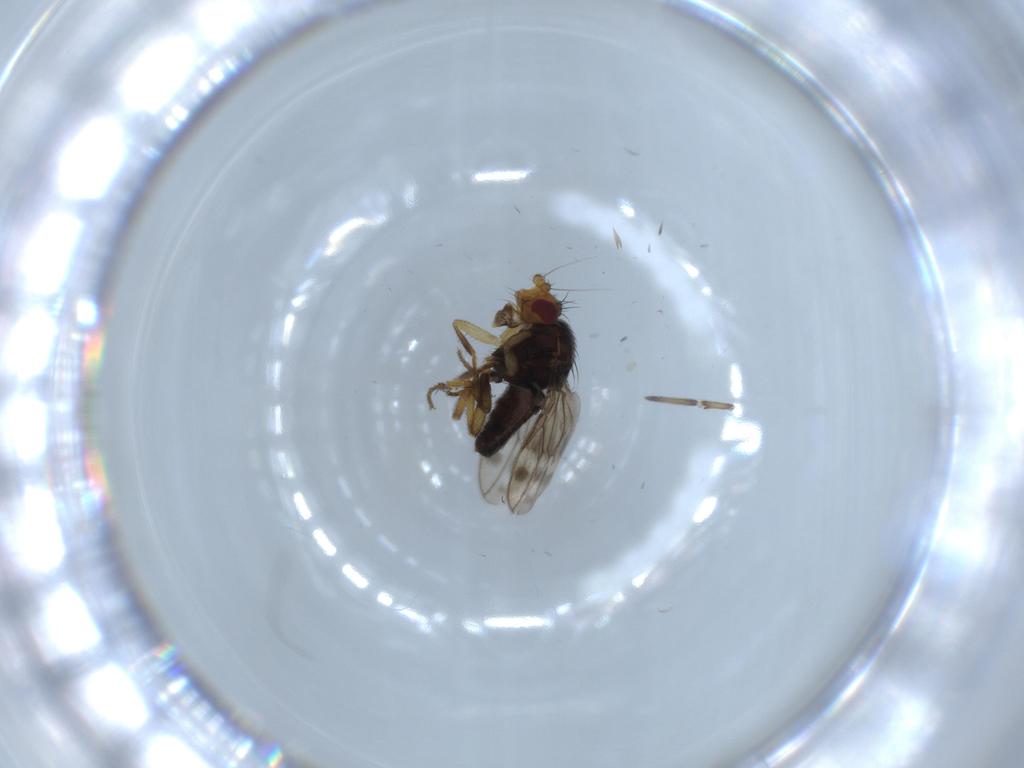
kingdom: Animalia
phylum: Arthropoda
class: Insecta
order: Diptera
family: Sphaeroceridae
